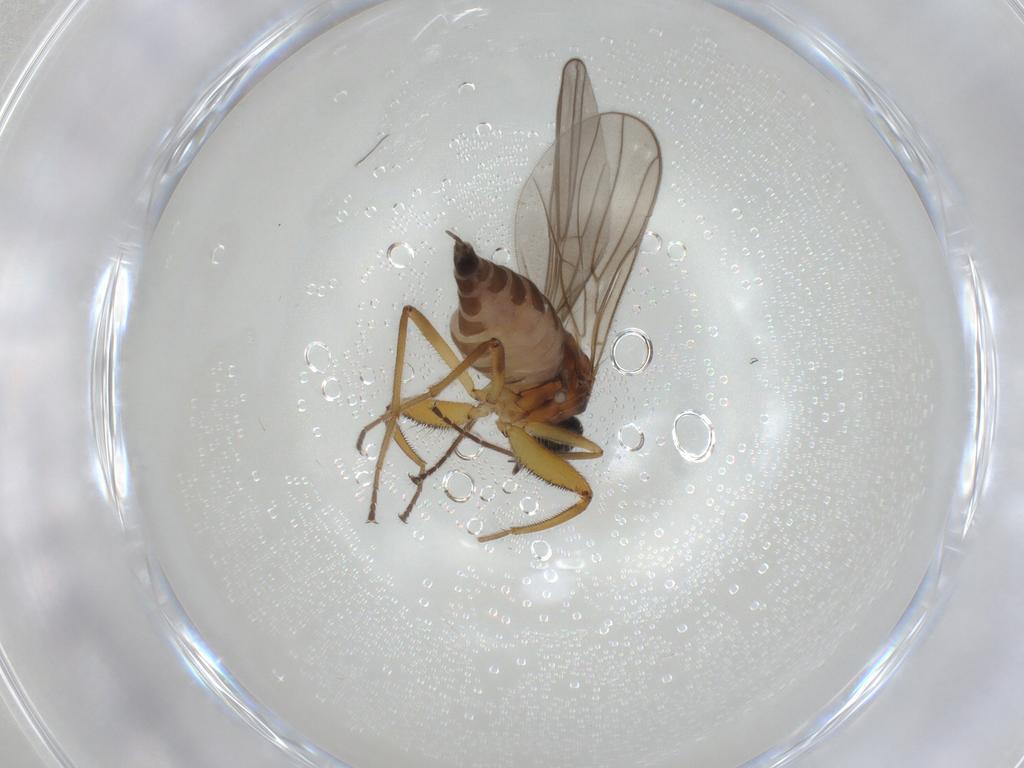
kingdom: Animalia
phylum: Arthropoda
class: Insecta
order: Diptera
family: Hybotidae
